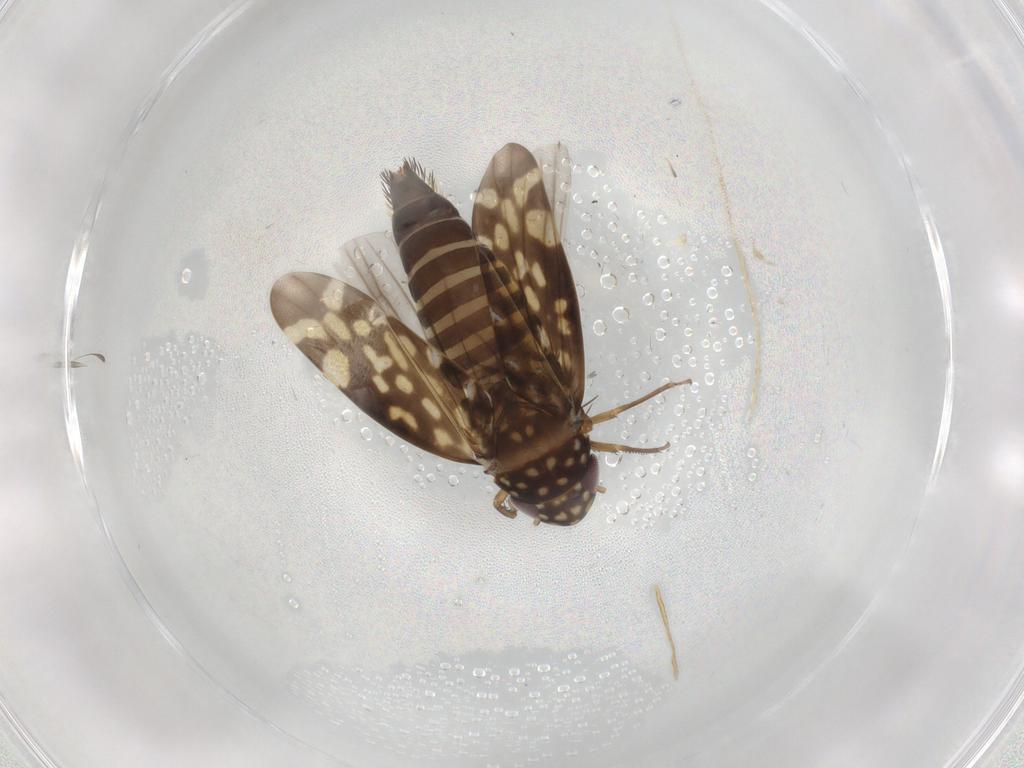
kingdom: Animalia
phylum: Arthropoda
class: Insecta
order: Hemiptera
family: Cicadellidae
